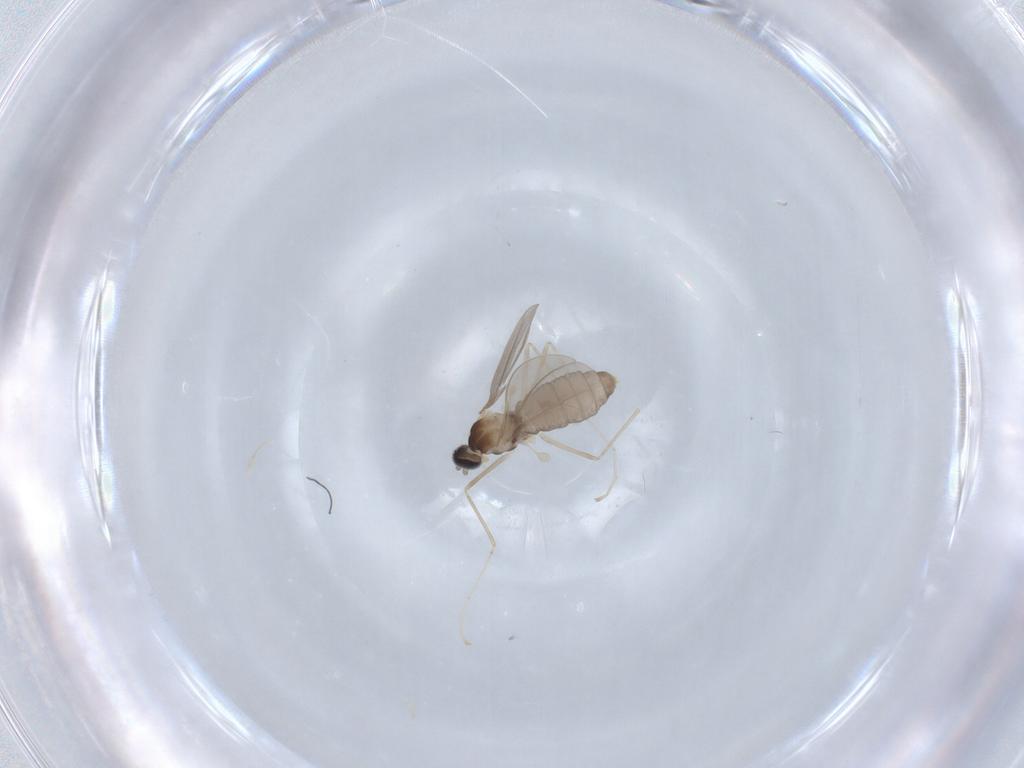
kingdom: Animalia
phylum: Arthropoda
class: Insecta
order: Diptera
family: Cecidomyiidae
